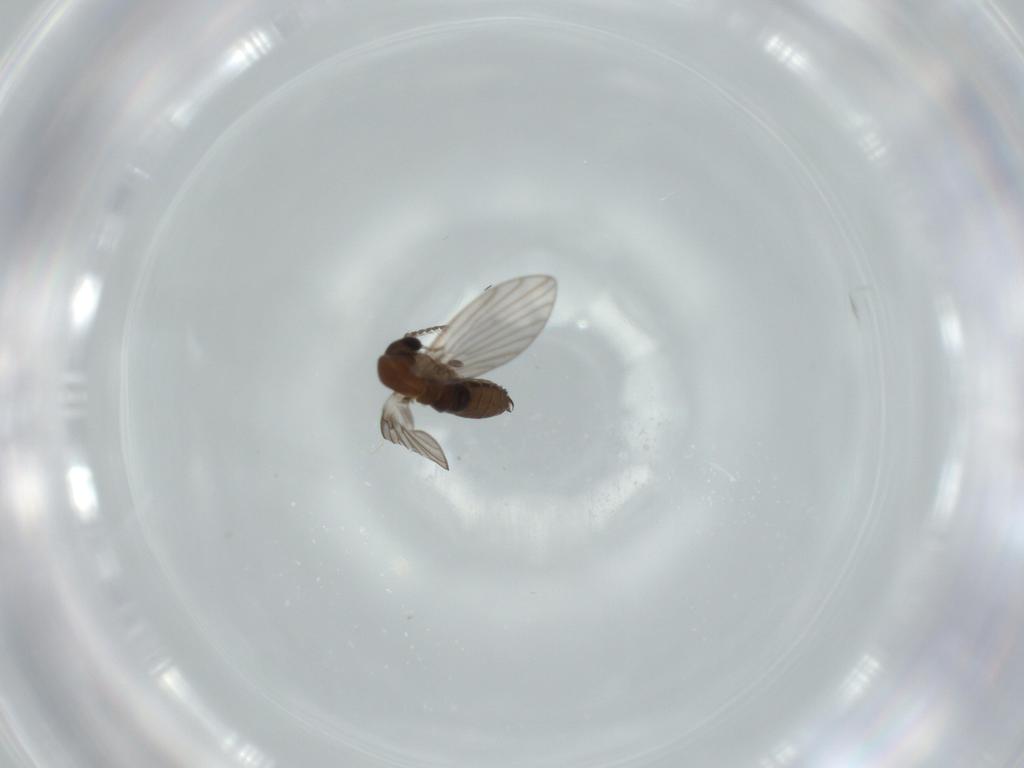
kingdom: Animalia
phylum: Arthropoda
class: Insecta
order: Diptera
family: Psychodidae
